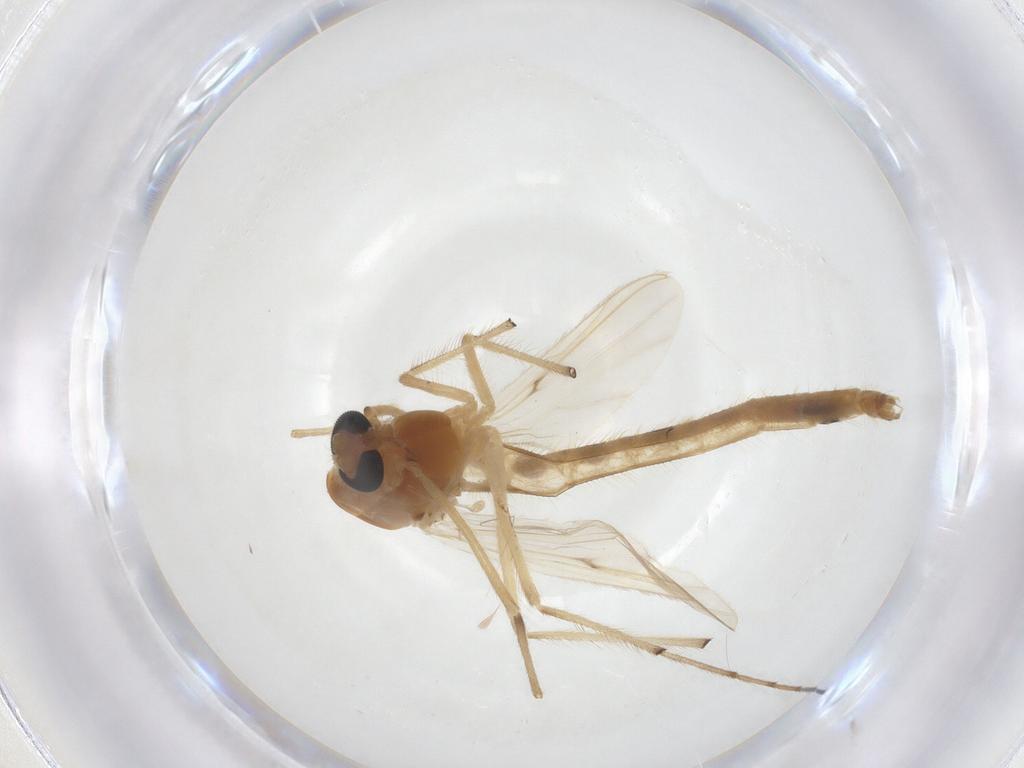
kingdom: Animalia
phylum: Arthropoda
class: Insecta
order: Diptera
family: Chironomidae
